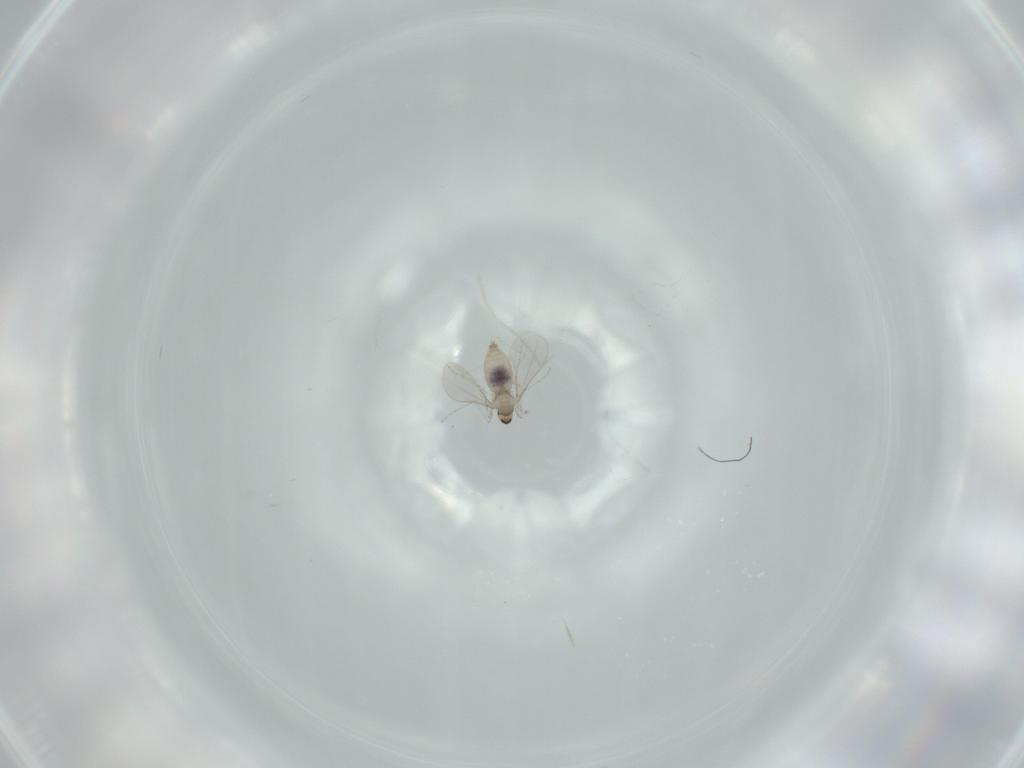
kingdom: Animalia
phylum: Arthropoda
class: Insecta
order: Diptera
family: Cecidomyiidae
